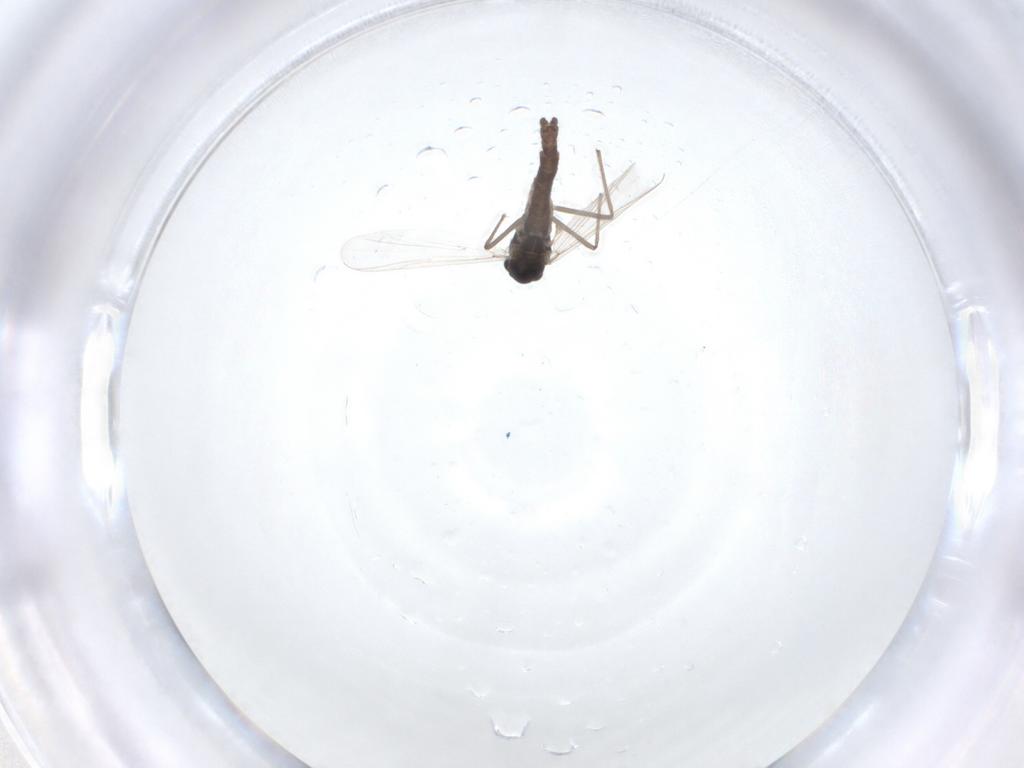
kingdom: Animalia
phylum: Arthropoda
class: Insecta
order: Diptera
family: Chironomidae
